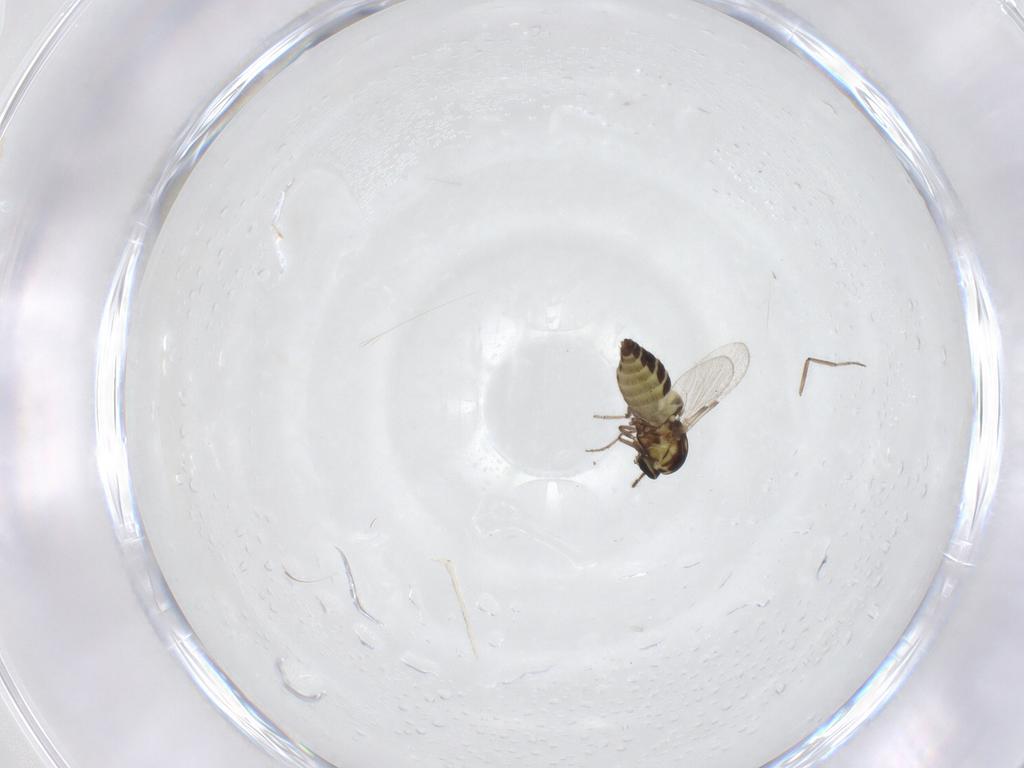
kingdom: Animalia
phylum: Arthropoda
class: Insecta
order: Diptera
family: Ceratopogonidae
